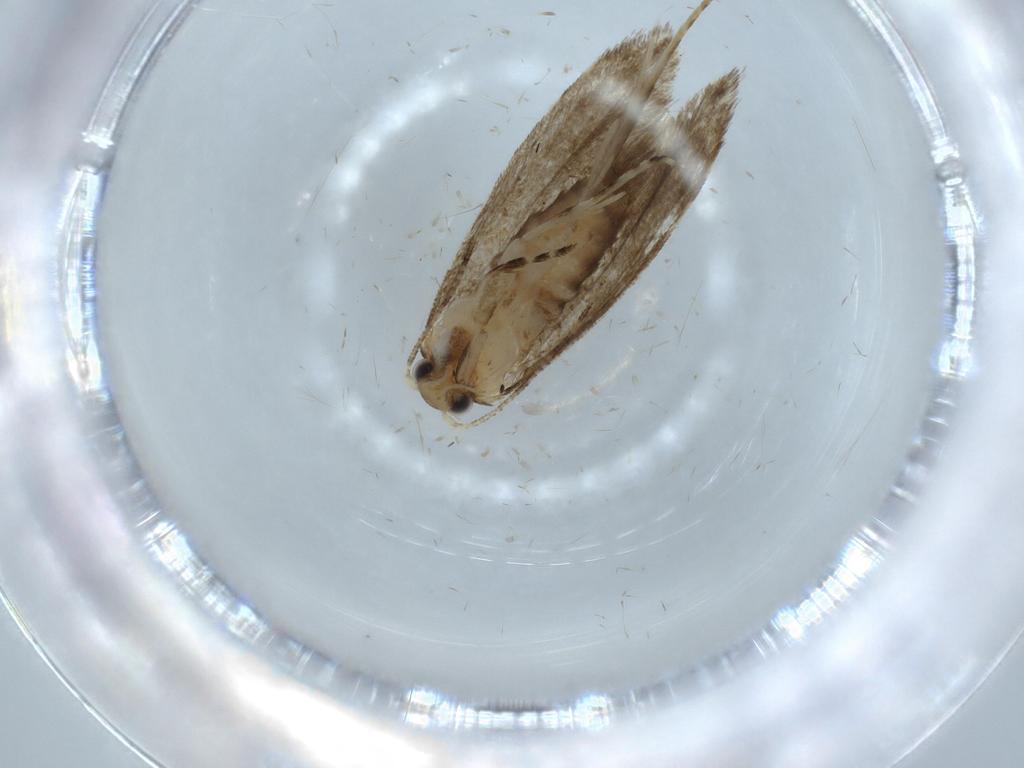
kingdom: Animalia
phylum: Arthropoda
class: Insecta
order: Lepidoptera
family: Tineidae
